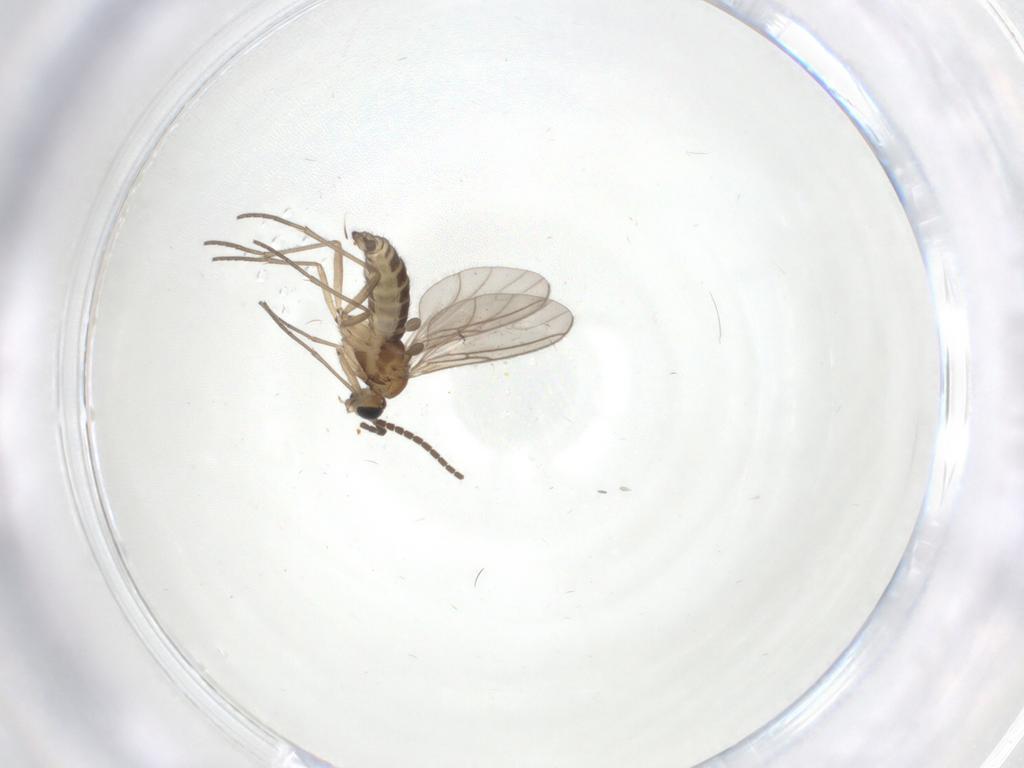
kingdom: Animalia
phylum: Arthropoda
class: Insecta
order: Diptera
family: Sciaridae
